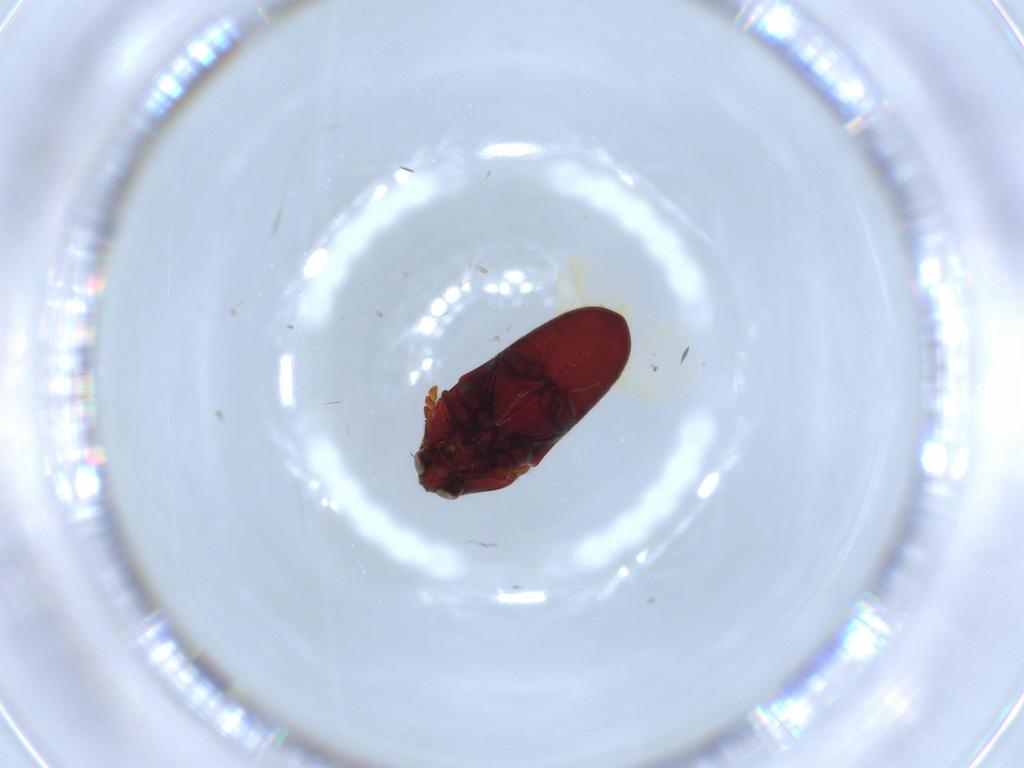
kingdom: Animalia
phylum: Arthropoda
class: Insecta
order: Coleoptera
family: Throscidae
